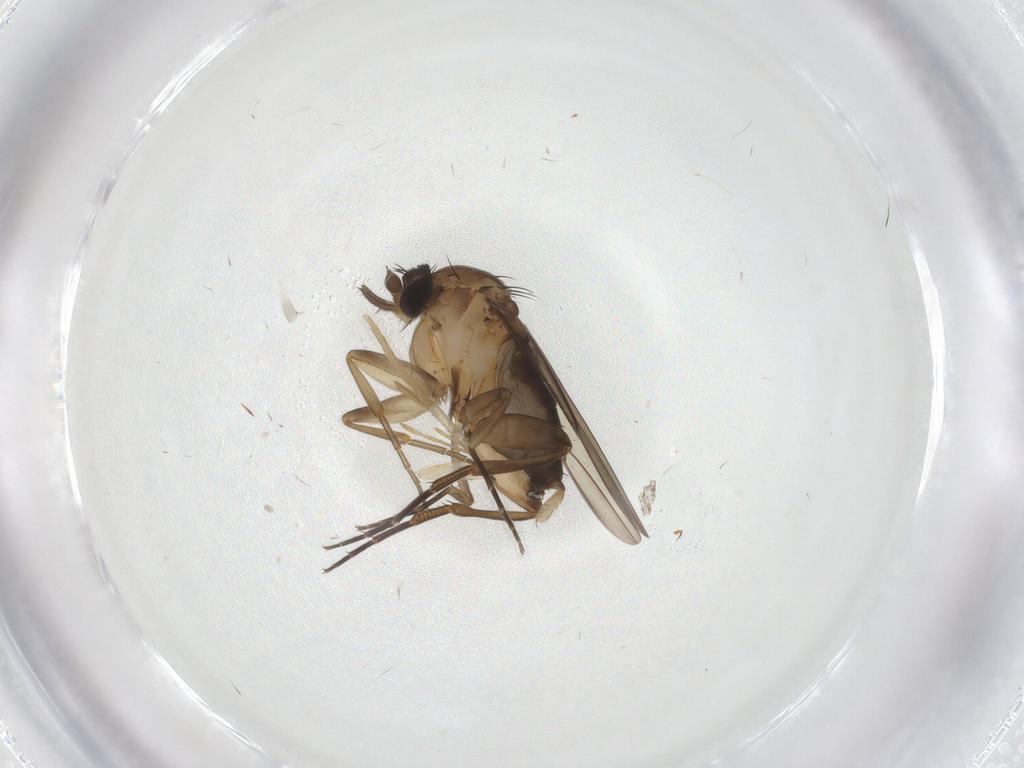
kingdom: Animalia
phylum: Arthropoda
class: Insecta
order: Diptera
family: Phoridae
